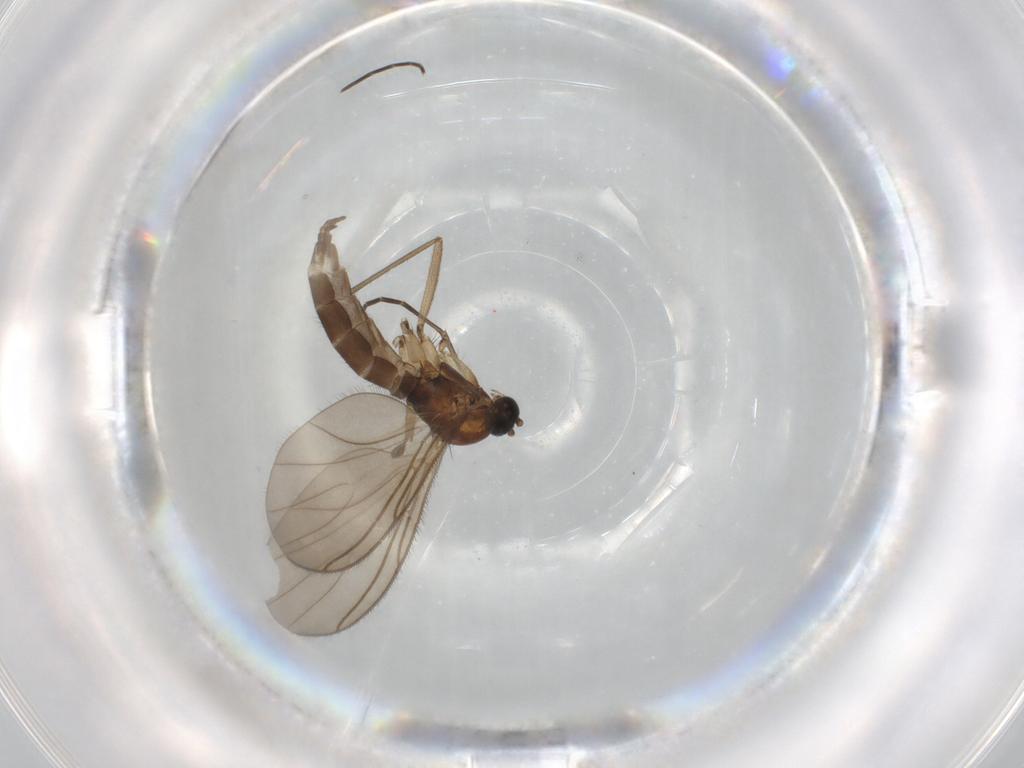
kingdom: Animalia
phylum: Arthropoda
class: Insecta
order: Diptera
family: Sciaridae
